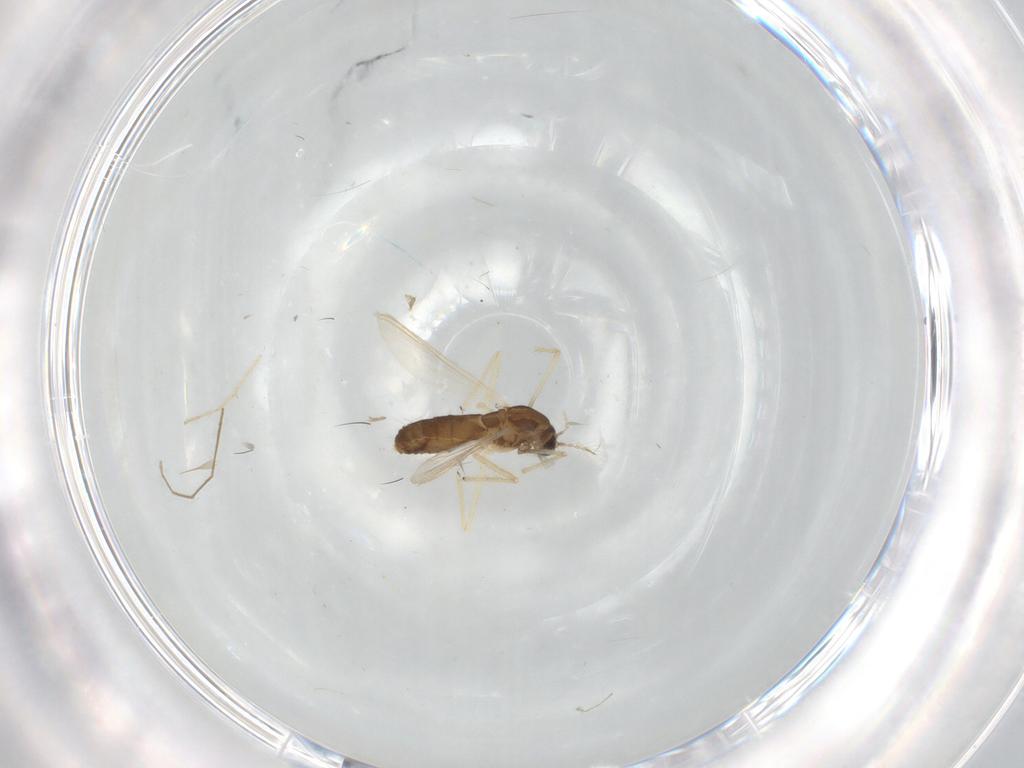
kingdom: Animalia
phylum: Arthropoda
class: Insecta
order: Diptera
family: Chironomidae
